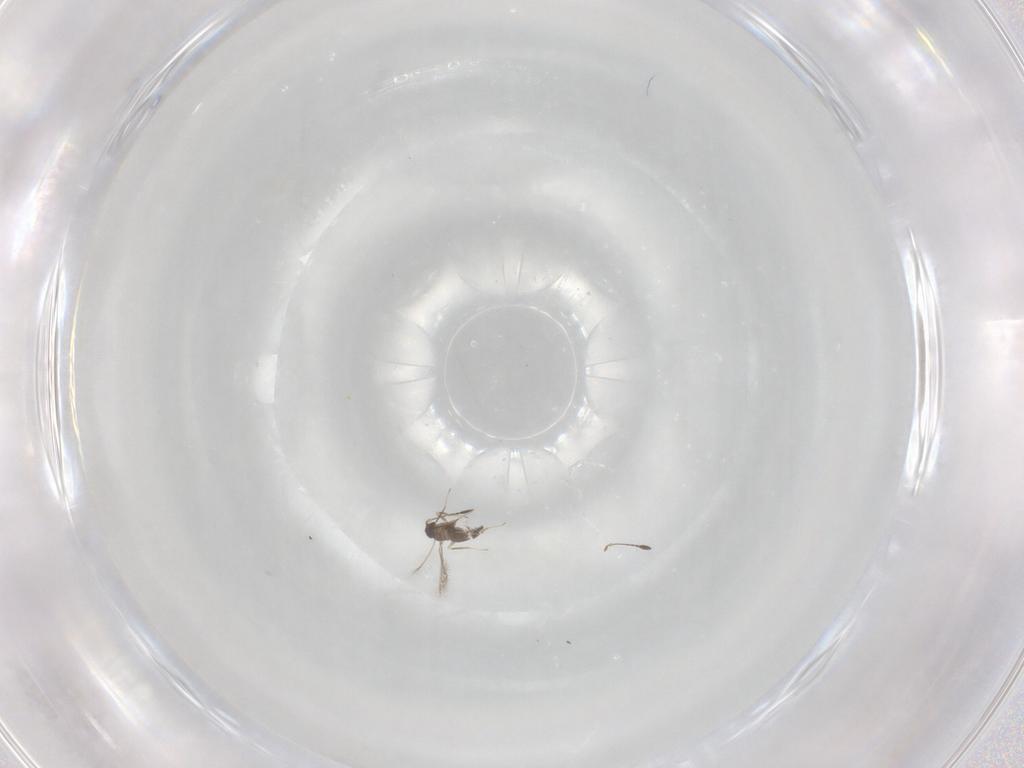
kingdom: Animalia
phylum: Arthropoda
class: Insecta
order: Hymenoptera
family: Mymaridae
